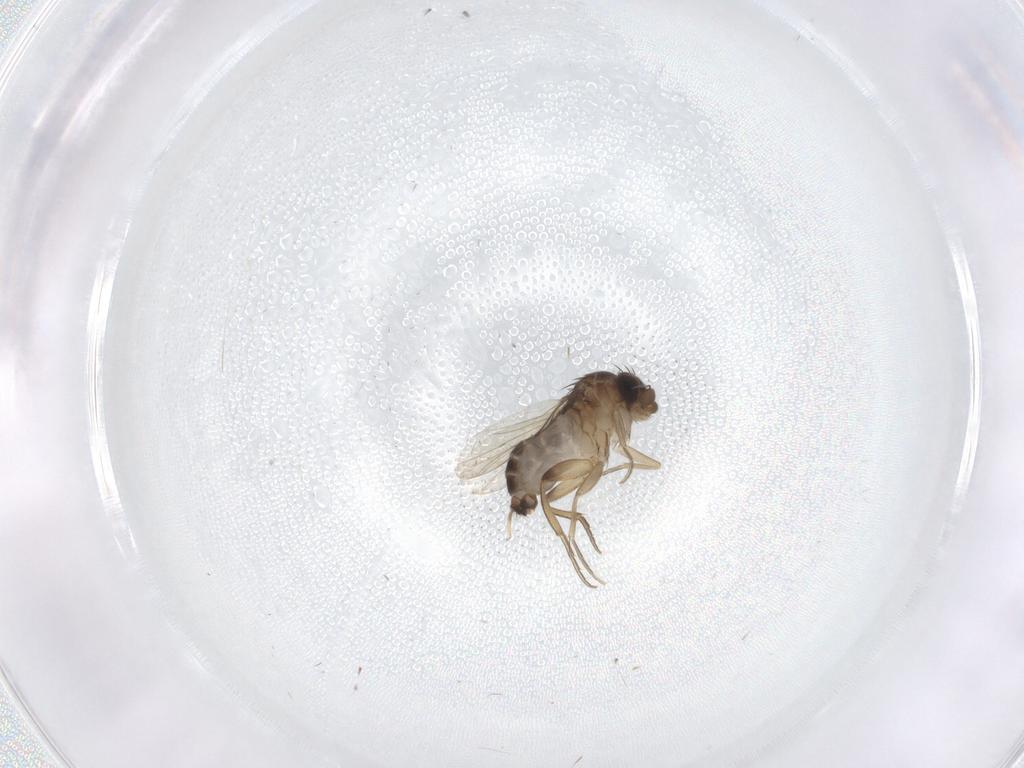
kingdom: Animalia
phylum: Arthropoda
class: Insecta
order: Diptera
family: Phoridae
